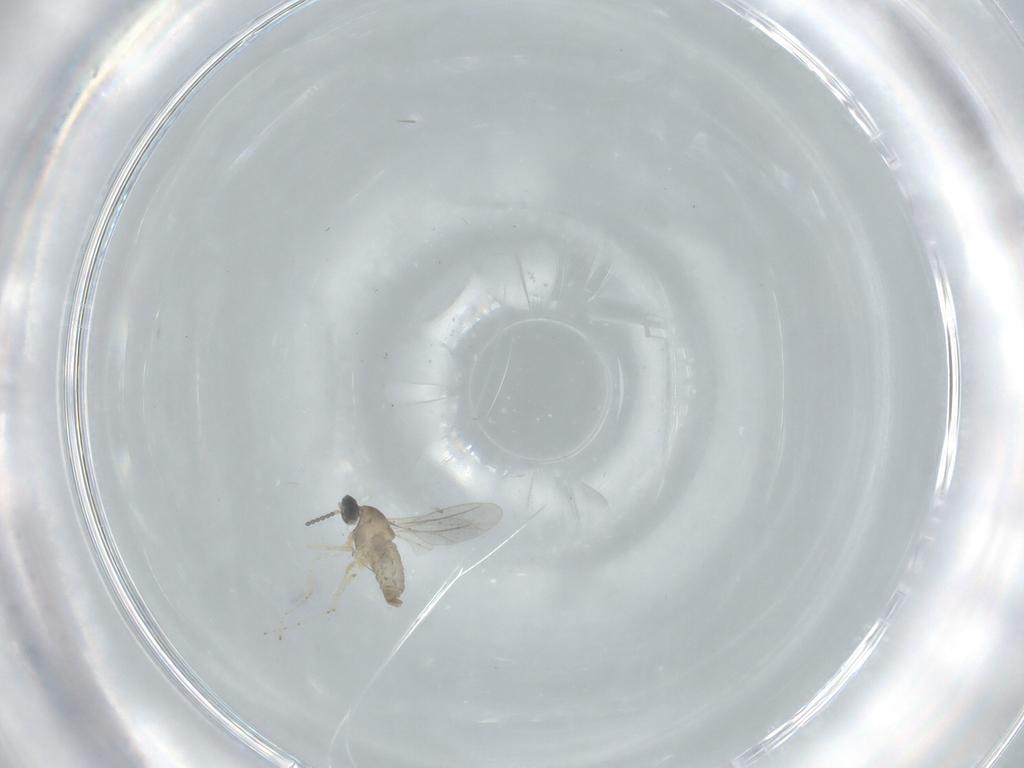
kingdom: Animalia
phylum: Arthropoda
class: Insecta
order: Diptera
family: Cecidomyiidae
